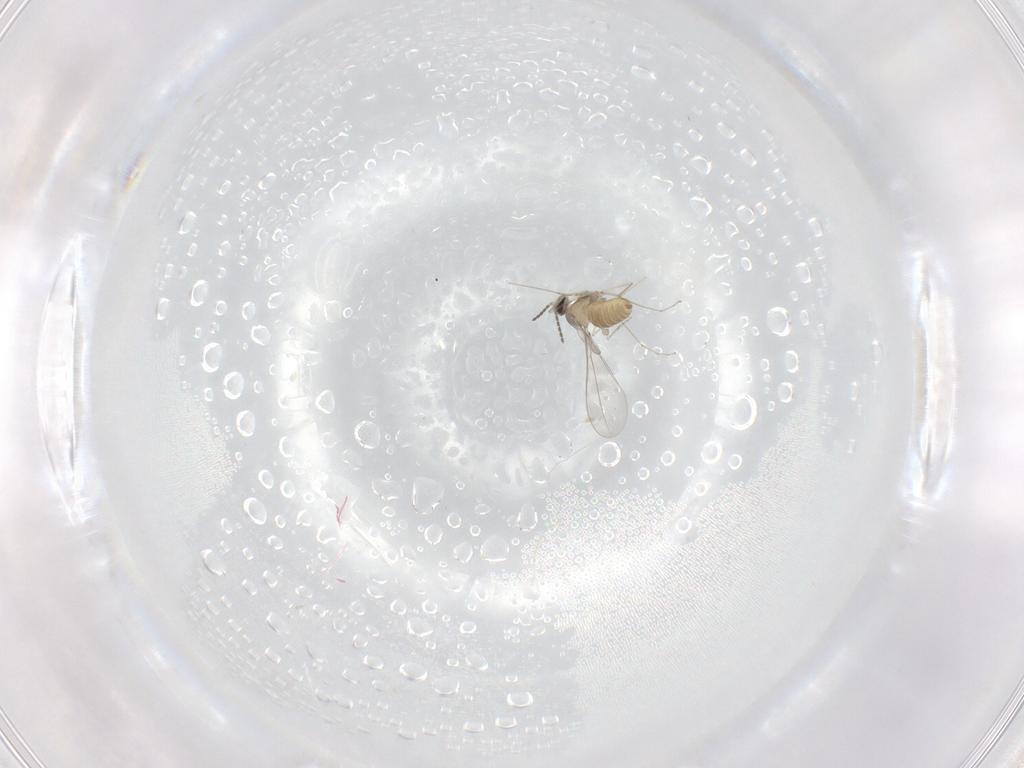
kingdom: Animalia
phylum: Arthropoda
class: Insecta
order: Diptera
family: Cecidomyiidae
